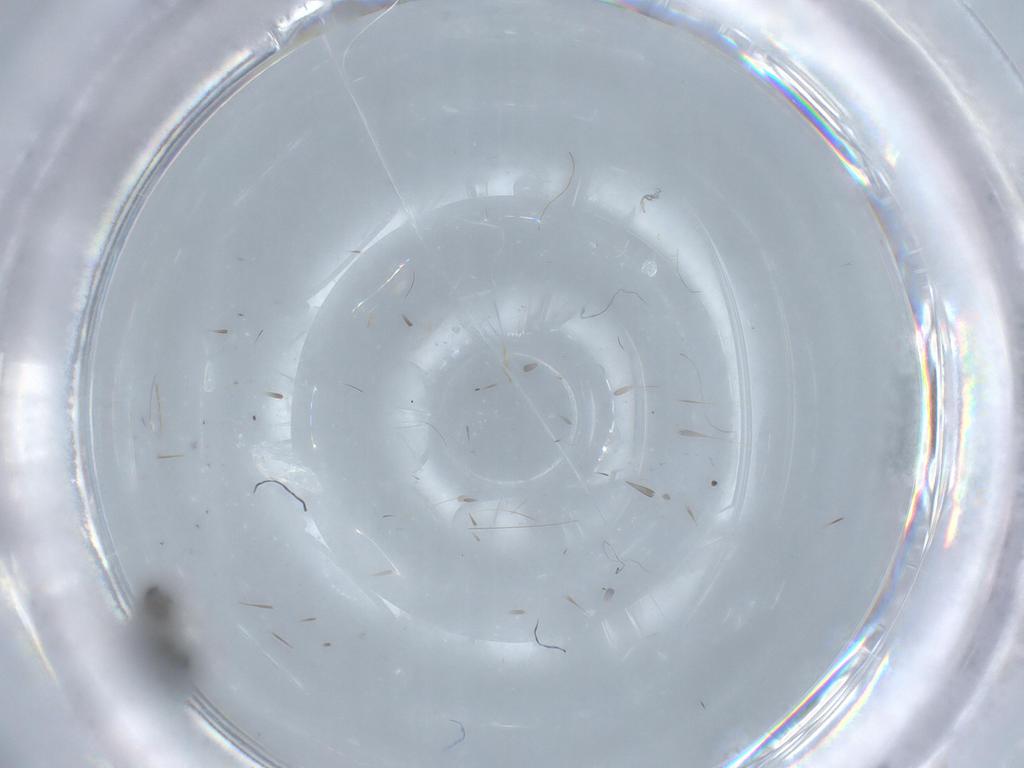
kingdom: Animalia
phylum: Arthropoda
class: Insecta
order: Diptera
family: Cecidomyiidae
